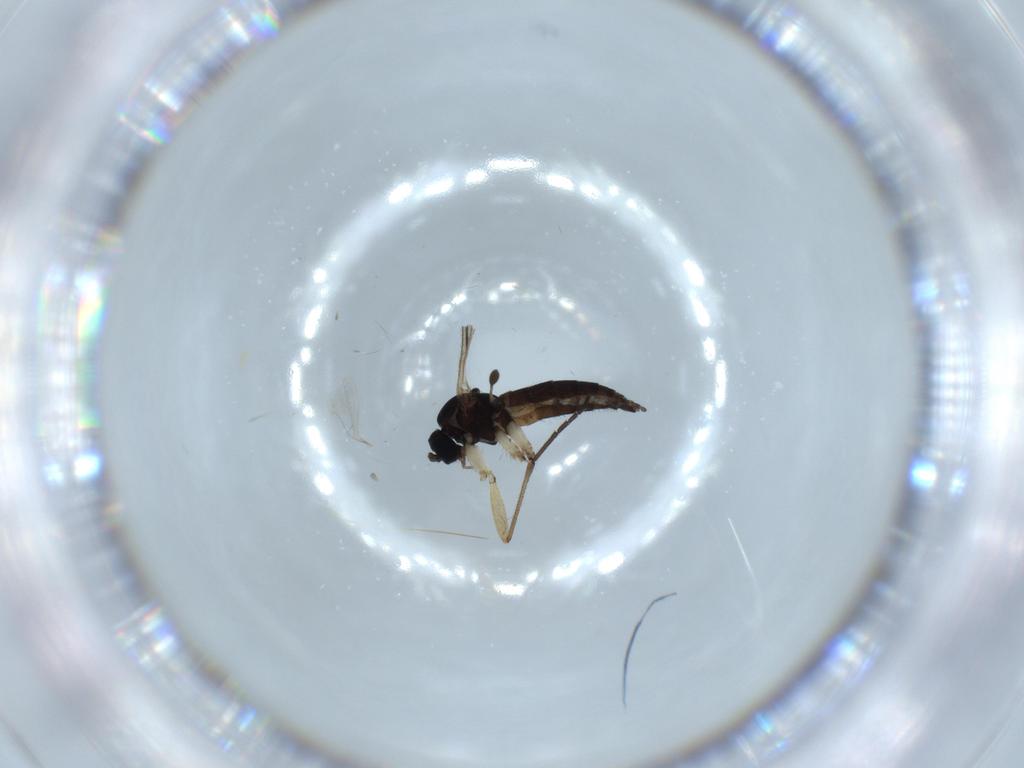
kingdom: Animalia
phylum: Arthropoda
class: Insecta
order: Diptera
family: Sciaridae
